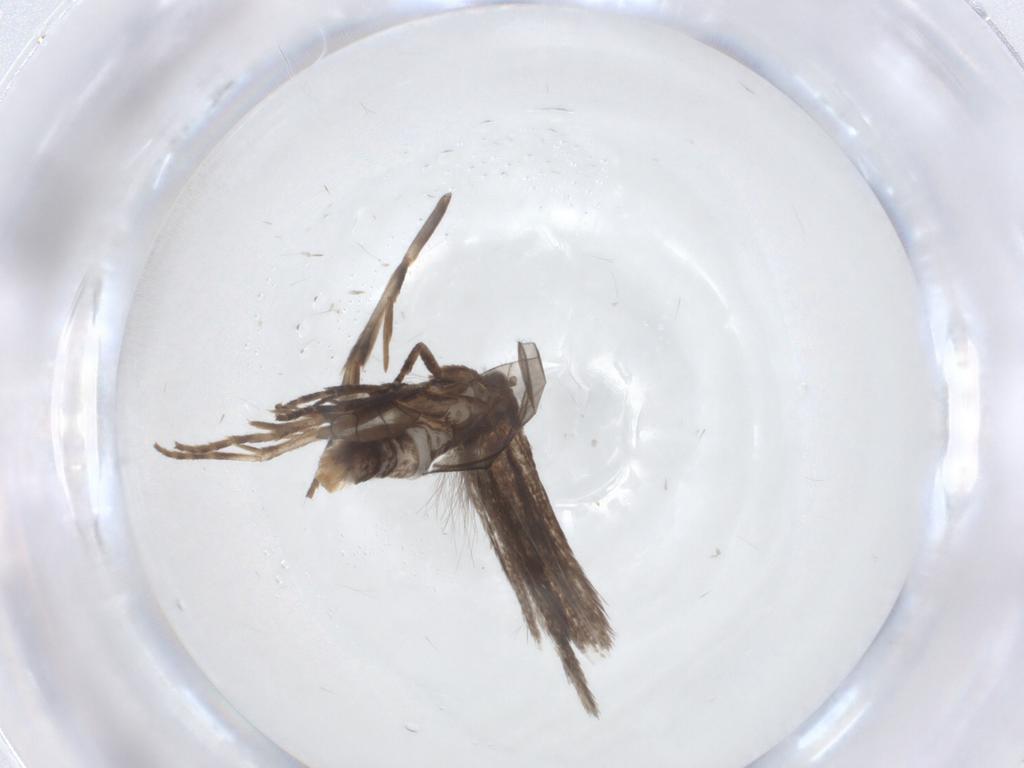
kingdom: Animalia
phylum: Arthropoda
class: Insecta
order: Lepidoptera
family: Elachistidae
